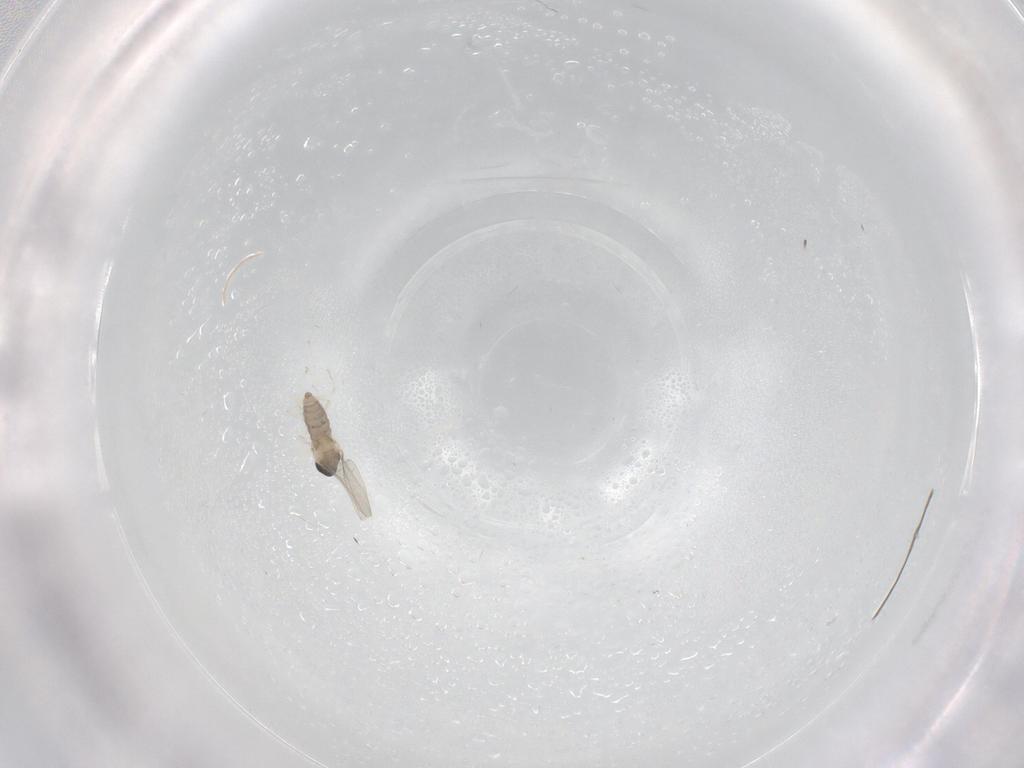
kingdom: Animalia
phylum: Arthropoda
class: Insecta
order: Diptera
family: Cecidomyiidae
